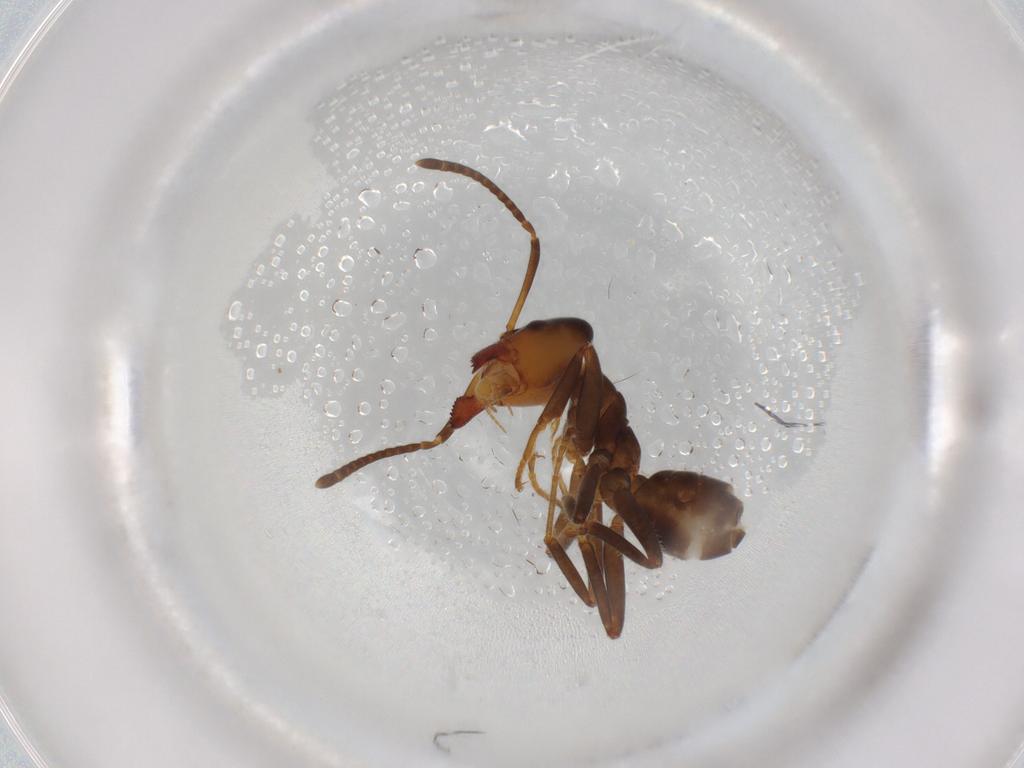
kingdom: Animalia
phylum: Arthropoda
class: Insecta
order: Hymenoptera
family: Formicidae
